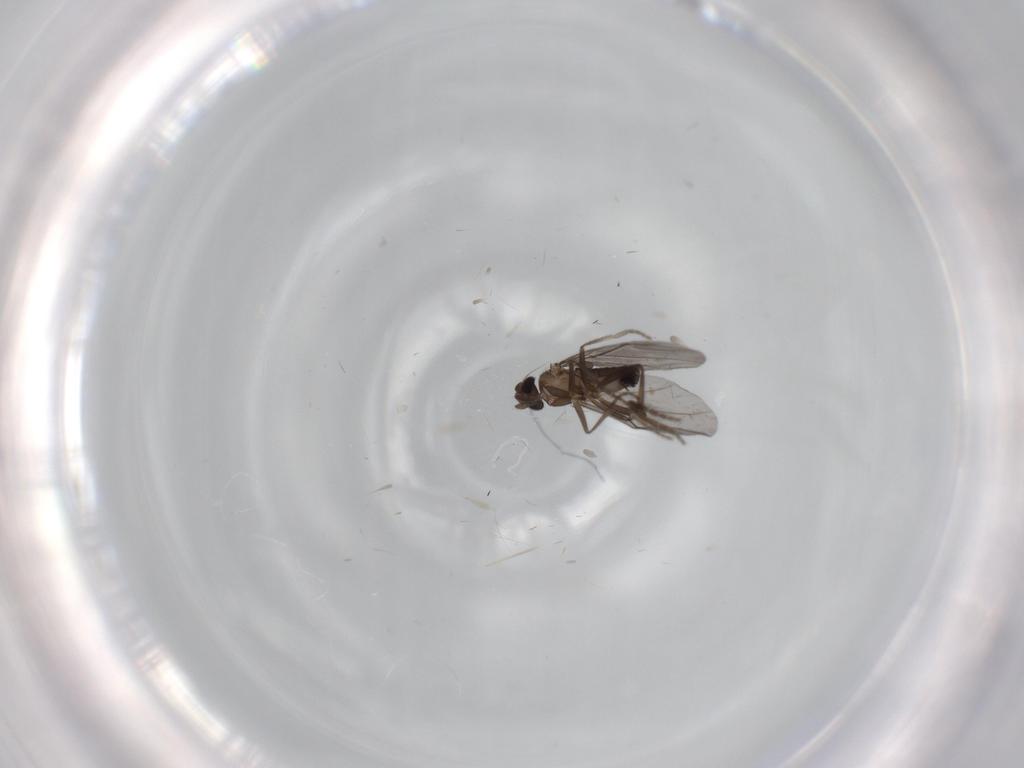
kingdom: Animalia
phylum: Arthropoda
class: Insecta
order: Diptera
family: Phoridae
